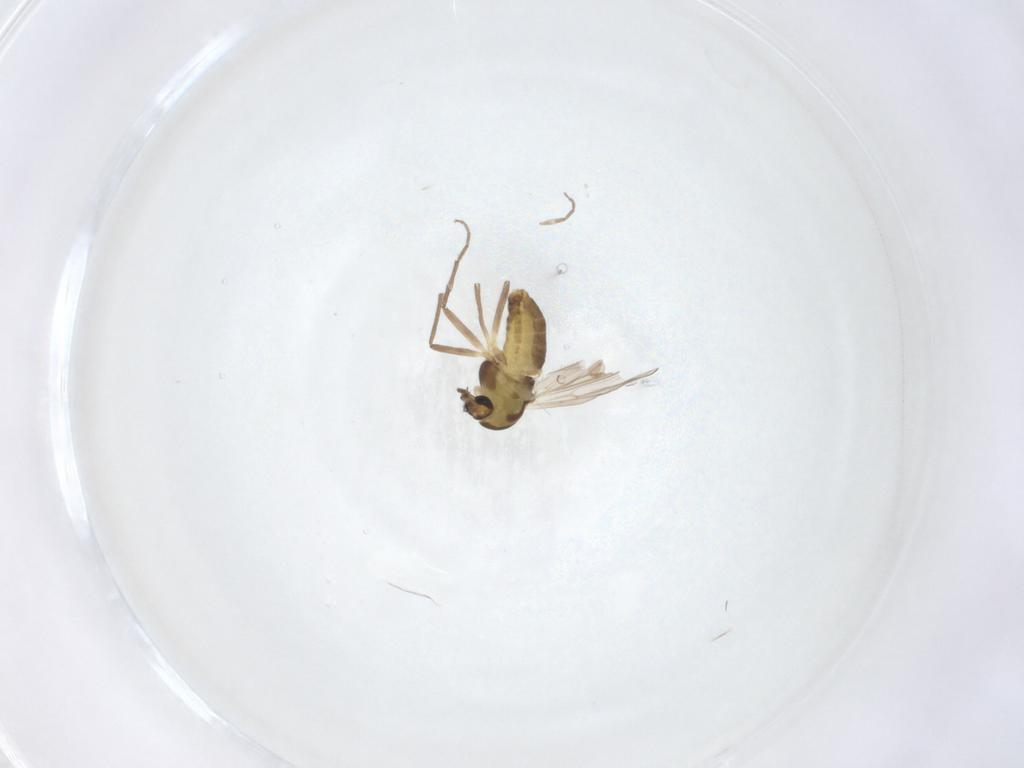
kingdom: Animalia
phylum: Arthropoda
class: Insecta
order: Diptera
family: Chironomidae
